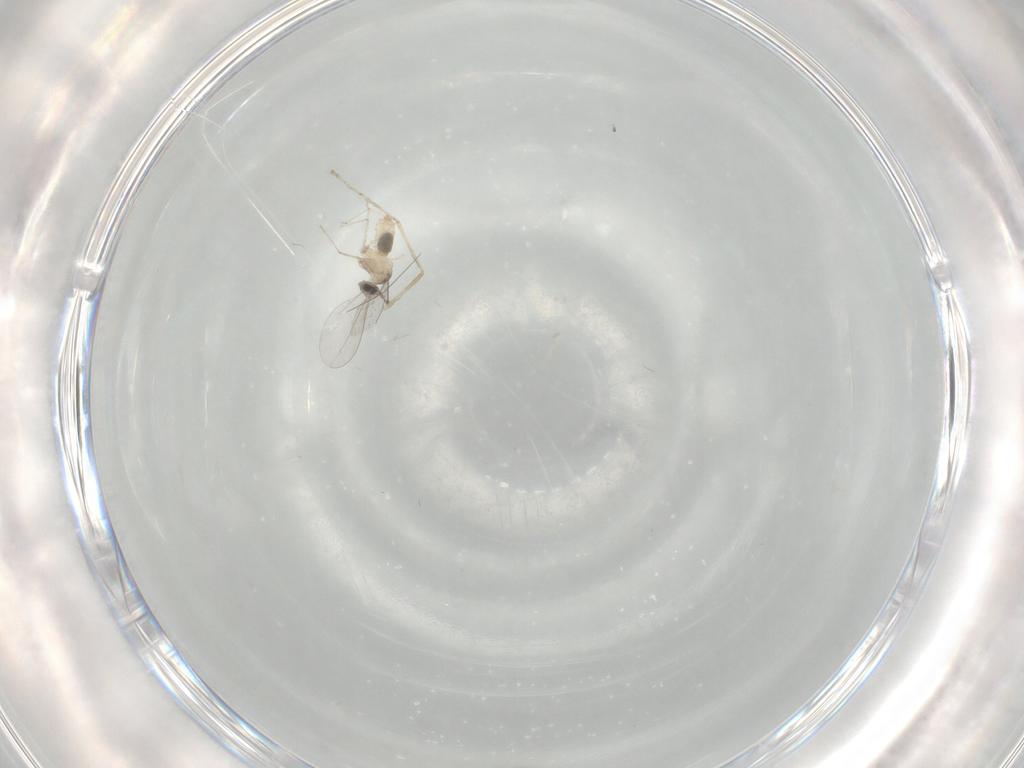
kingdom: Animalia
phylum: Arthropoda
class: Insecta
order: Diptera
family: Cecidomyiidae
